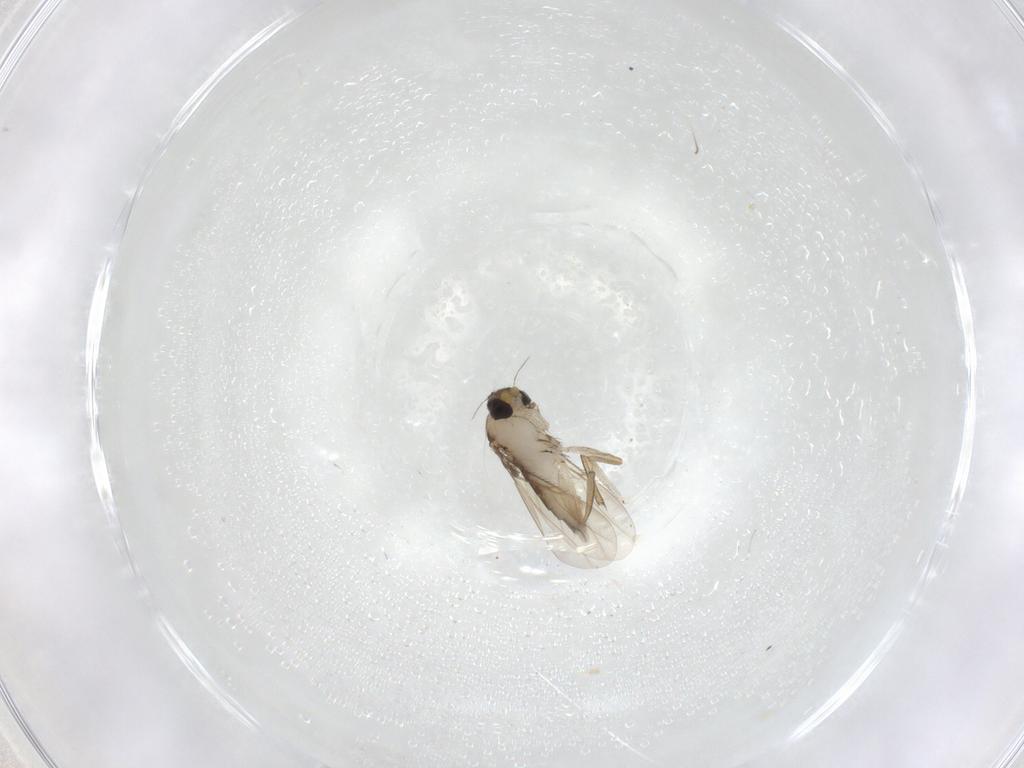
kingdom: Animalia
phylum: Arthropoda
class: Insecta
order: Diptera
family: Phoridae
